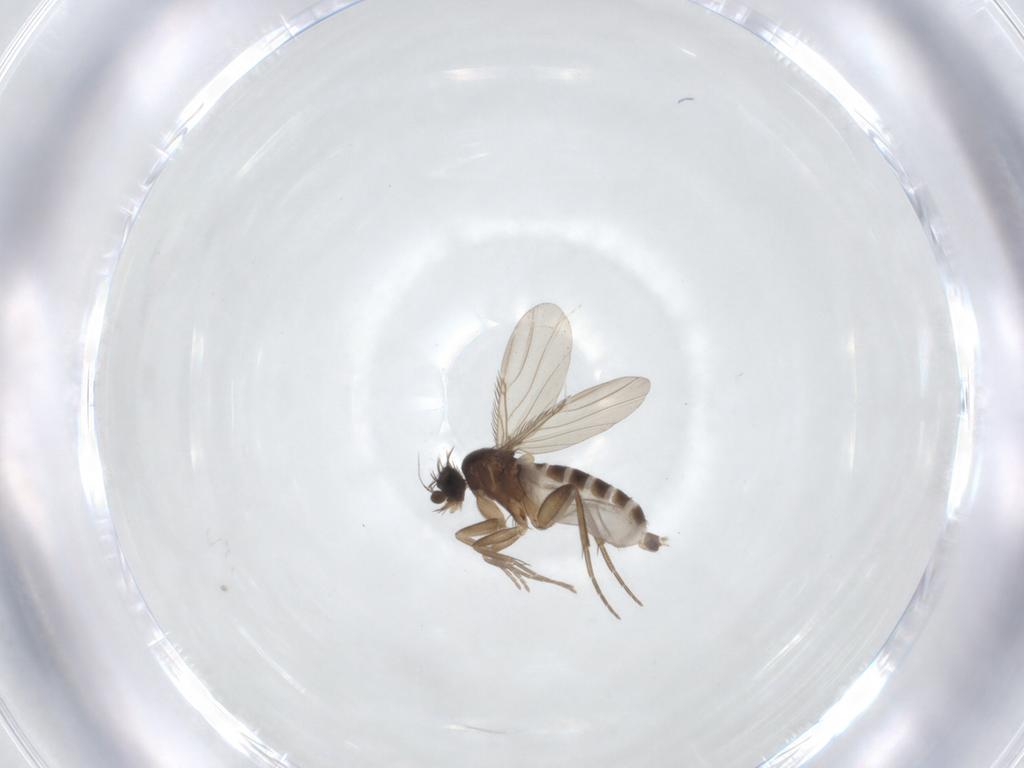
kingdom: Animalia
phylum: Arthropoda
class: Insecta
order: Diptera
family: Phoridae
